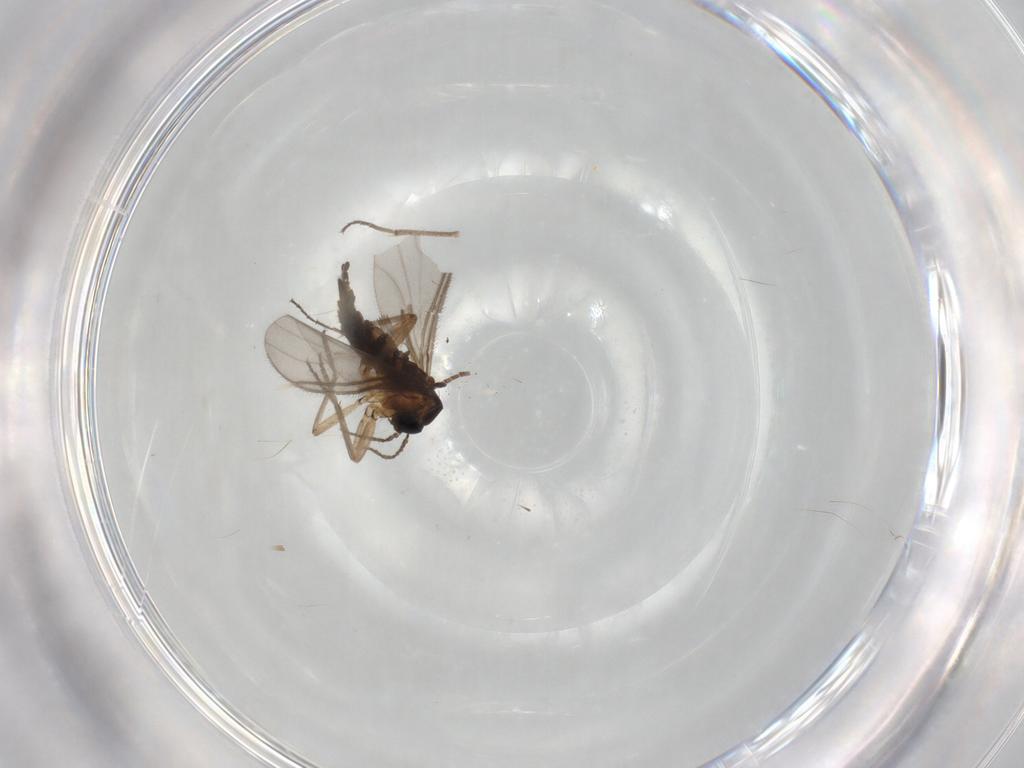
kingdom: Animalia
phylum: Arthropoda
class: Insecta
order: Diptera
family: Sciaridae
